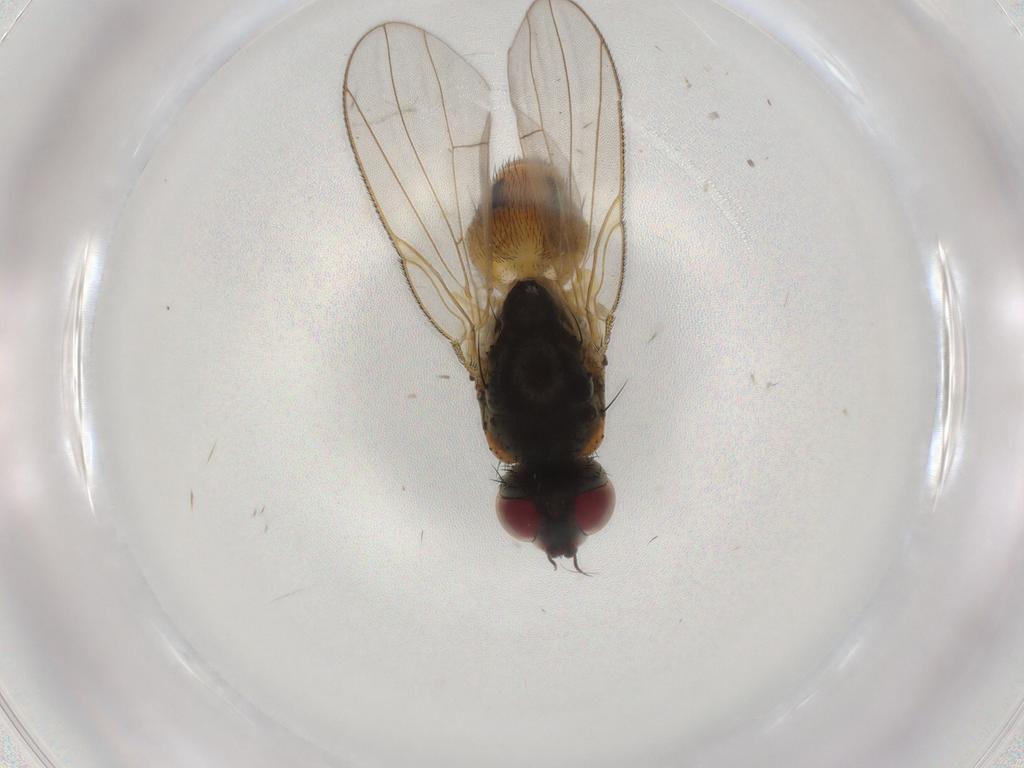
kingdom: Animalia
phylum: Arthropoda
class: Insecta
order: Diptera
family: Muscidae
